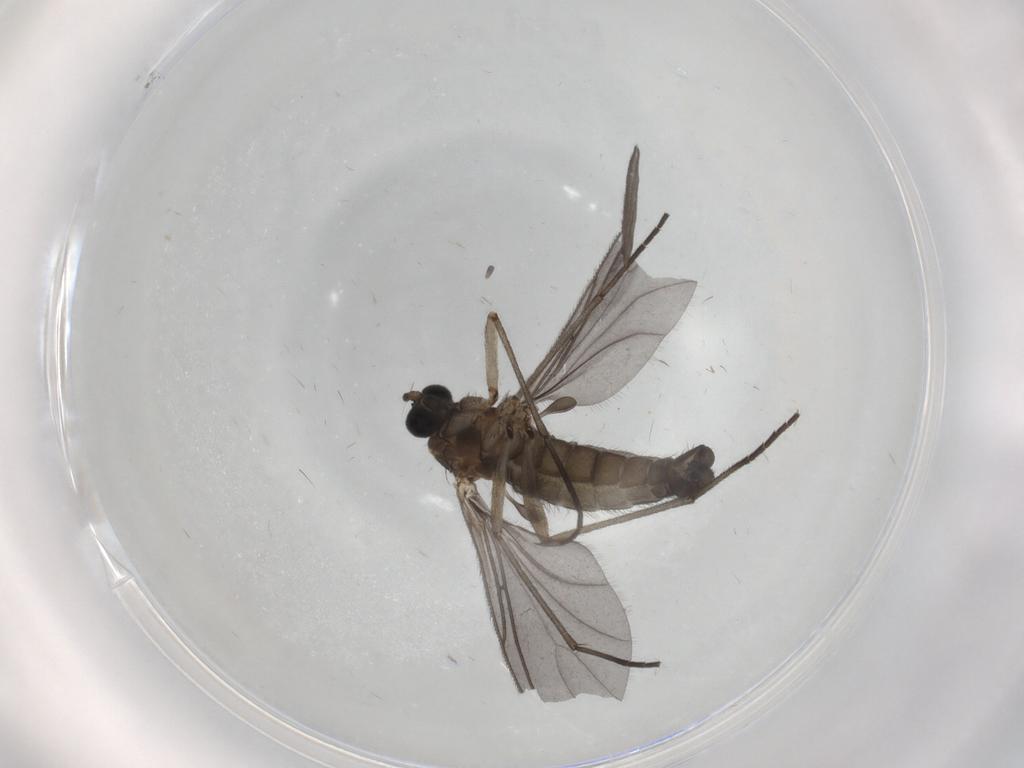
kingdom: Animalia
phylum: Arthropoda
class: Insecta
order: Diptera
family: Sciaridae
